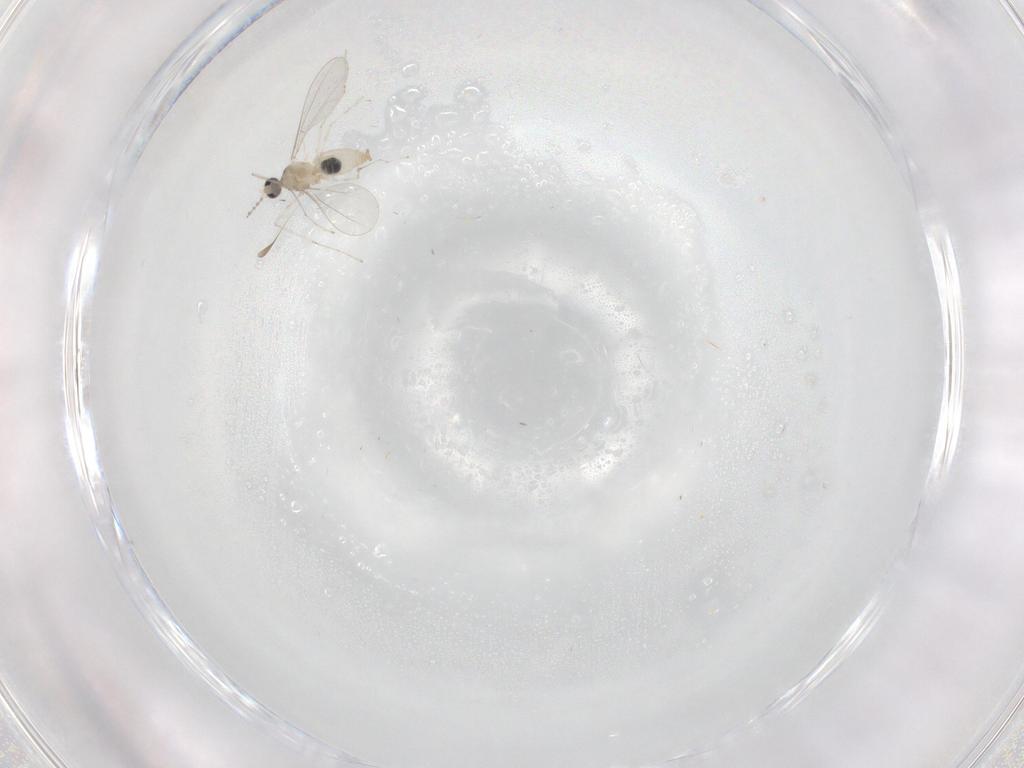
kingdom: Animalia
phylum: Arthropoda
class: Insecta
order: Diptera
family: Cecidomyiidae
